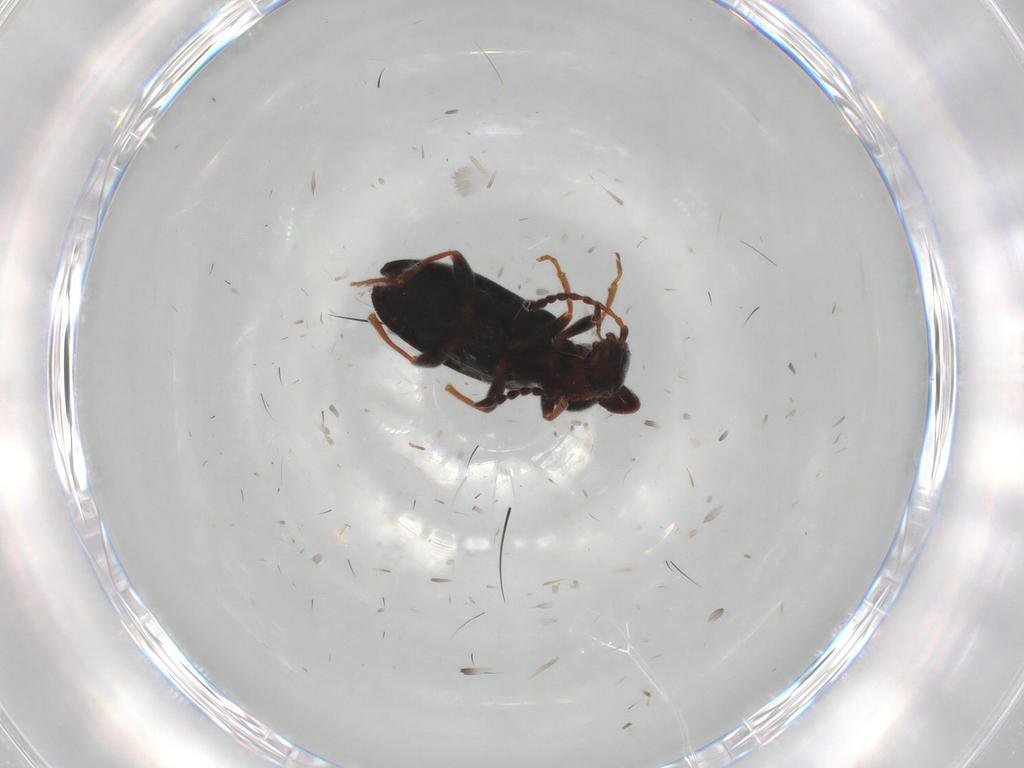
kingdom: Animalia
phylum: Arthropoda
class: Insecta
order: Coleoptera
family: Anthicidae
